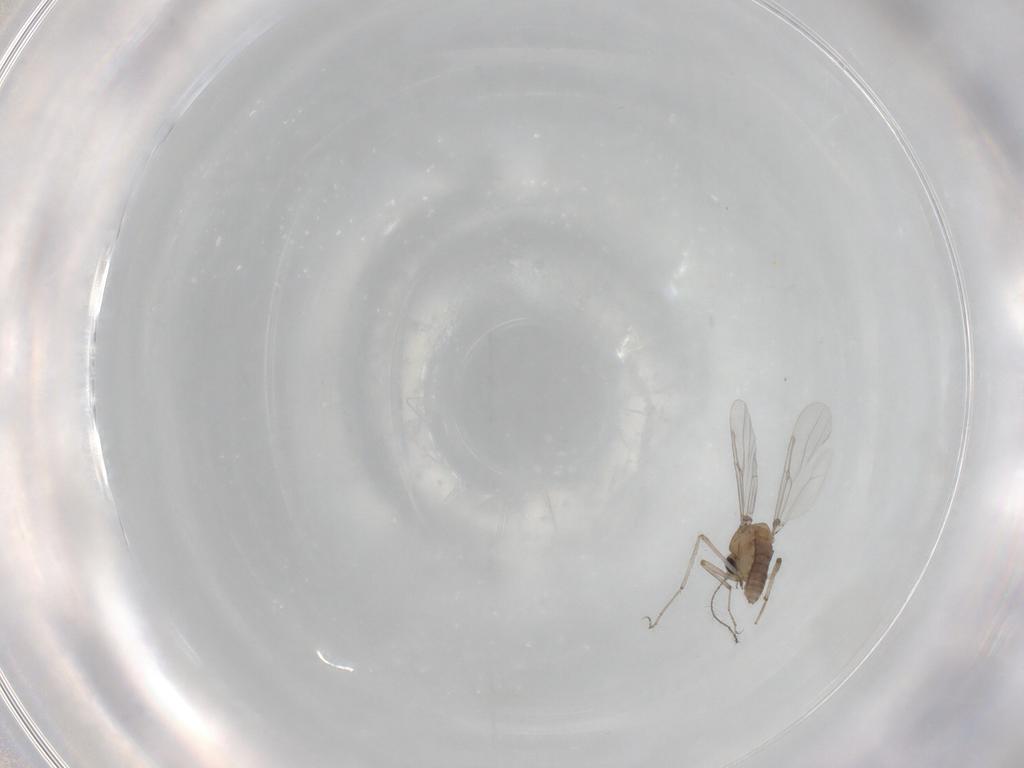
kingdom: Animalia
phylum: Arthropoda
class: Insecta
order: Diptera
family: Ceratopogonidae
